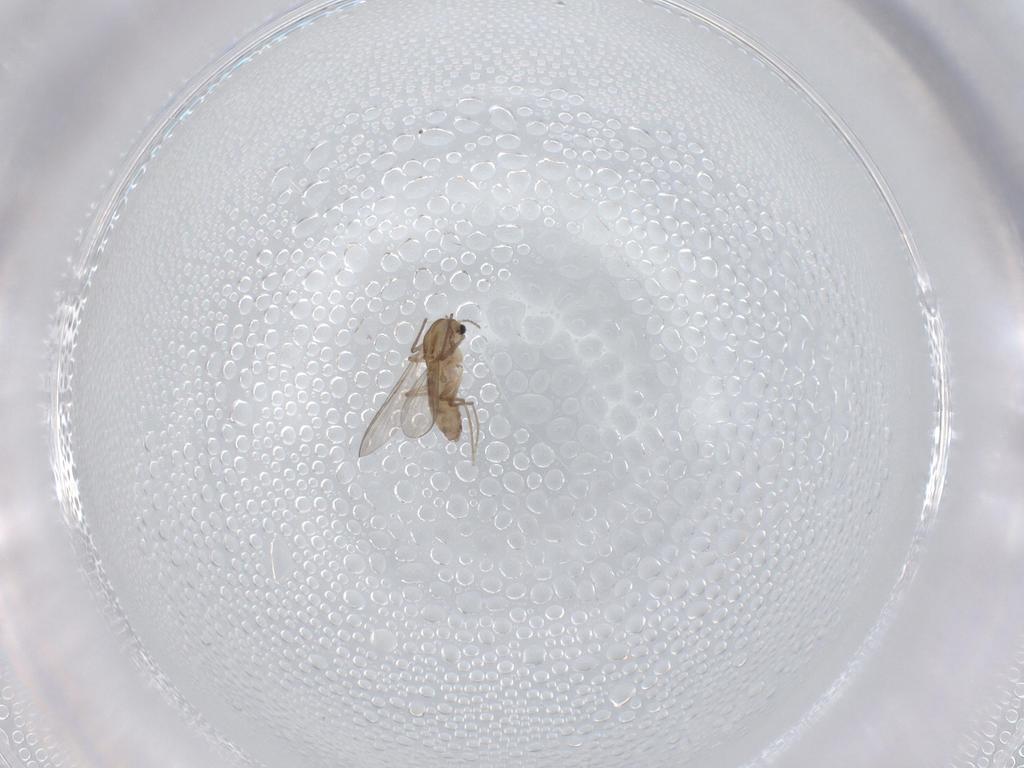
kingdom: Animalia
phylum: Arthropoda
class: Insecta
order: Diptera
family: Chironomidae
